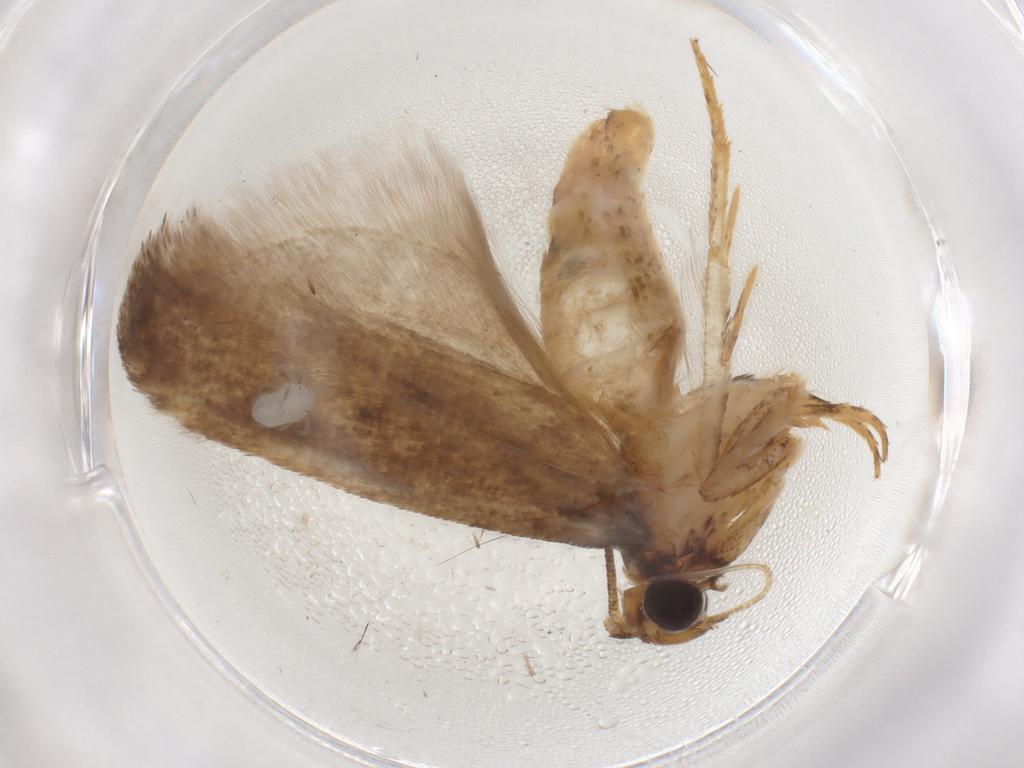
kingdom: Animalia
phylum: Arthropoda
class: Insecta
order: Lepidoptera
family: Gelechiidae
